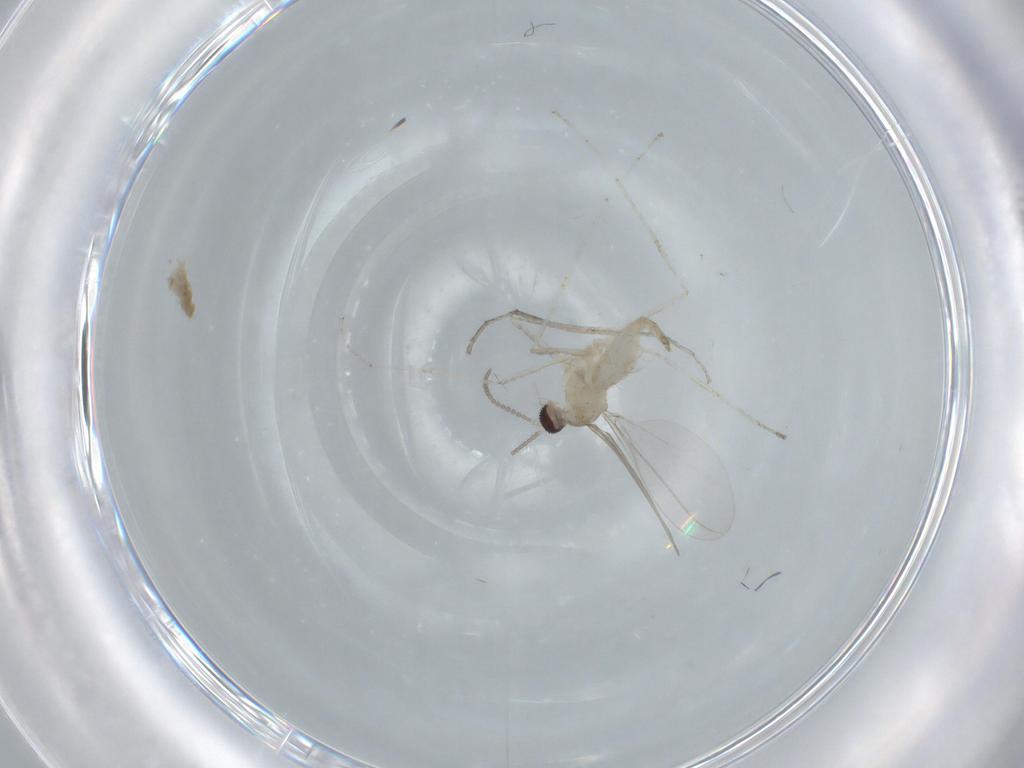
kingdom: Animalia
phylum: Arthropoda
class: Insecta
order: Diptera
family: Cecidomyiidae
